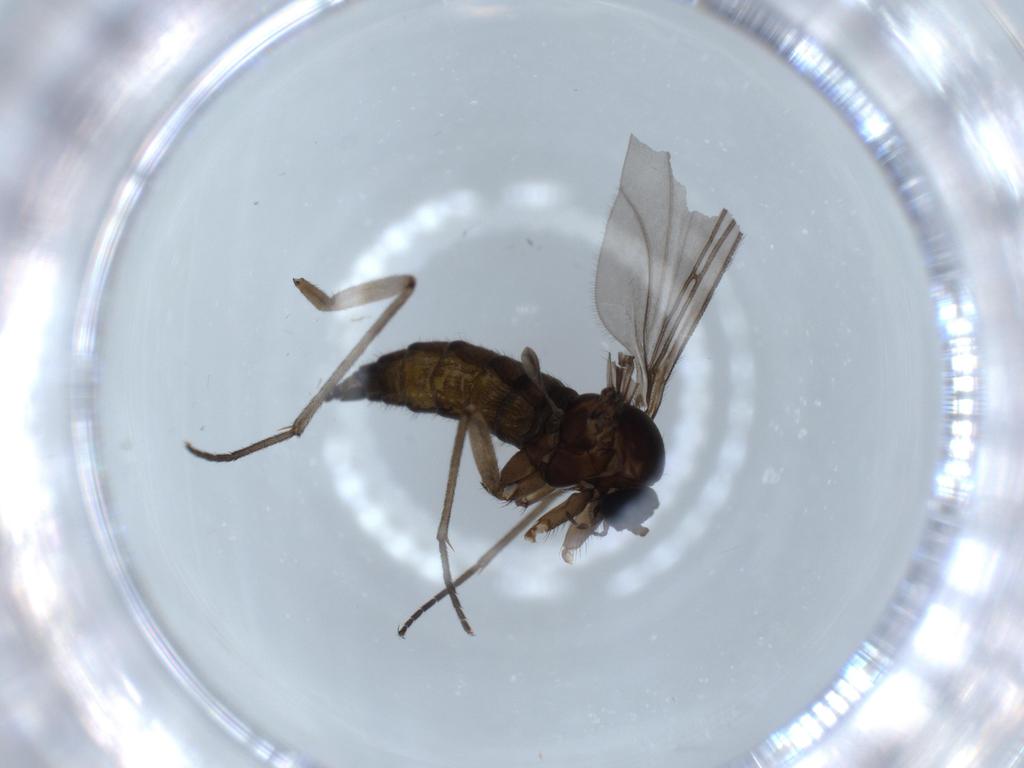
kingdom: Animalia
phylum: Arthropoda
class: Insecta
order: Diptera
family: Sciaridae
